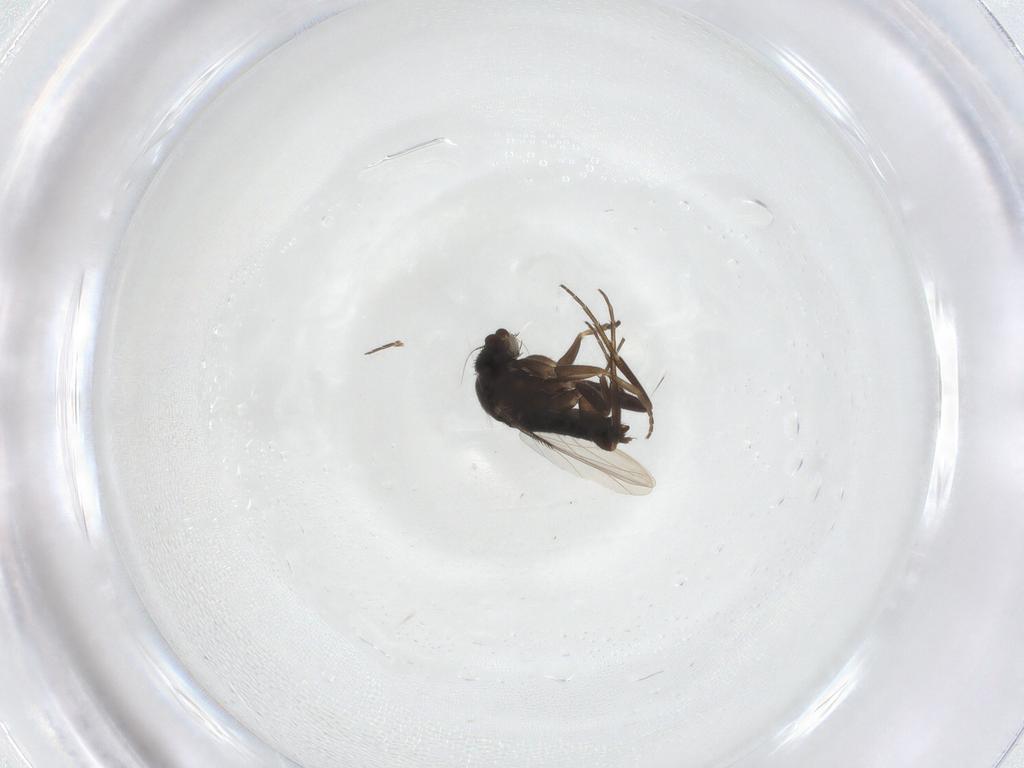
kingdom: Animalia
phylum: Arthropoda
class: Insecta
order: Diptera
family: Phoridae
